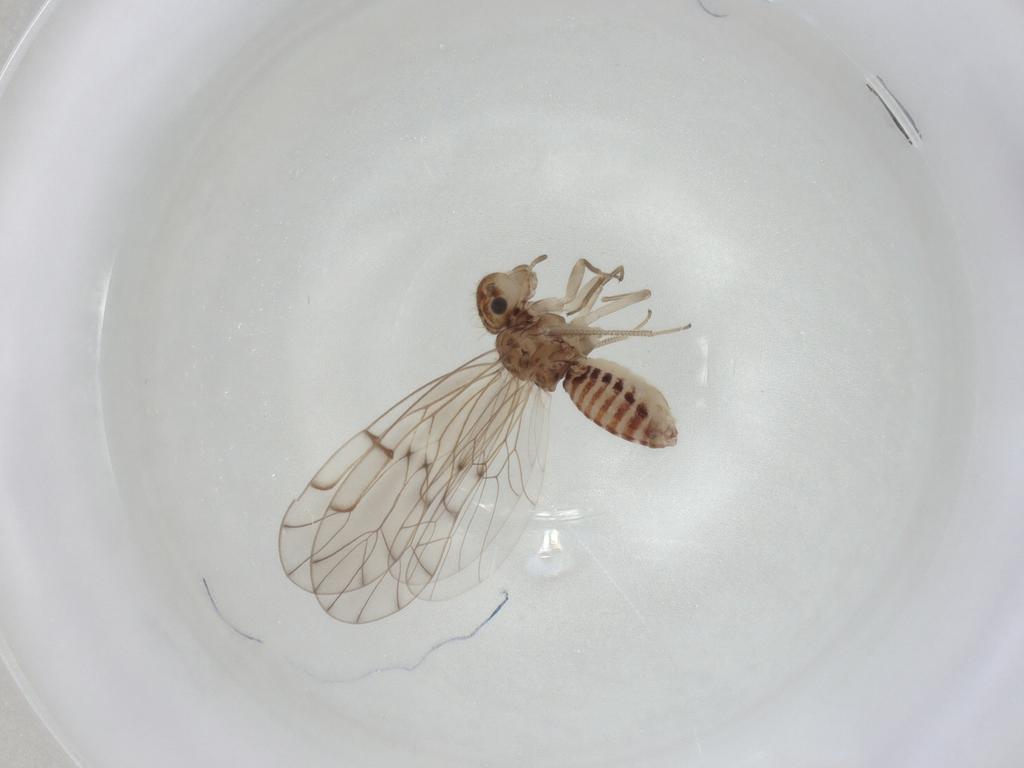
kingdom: Animalia
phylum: Arthropoda
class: Insecta
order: Diptera
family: Ceratopogonidae
